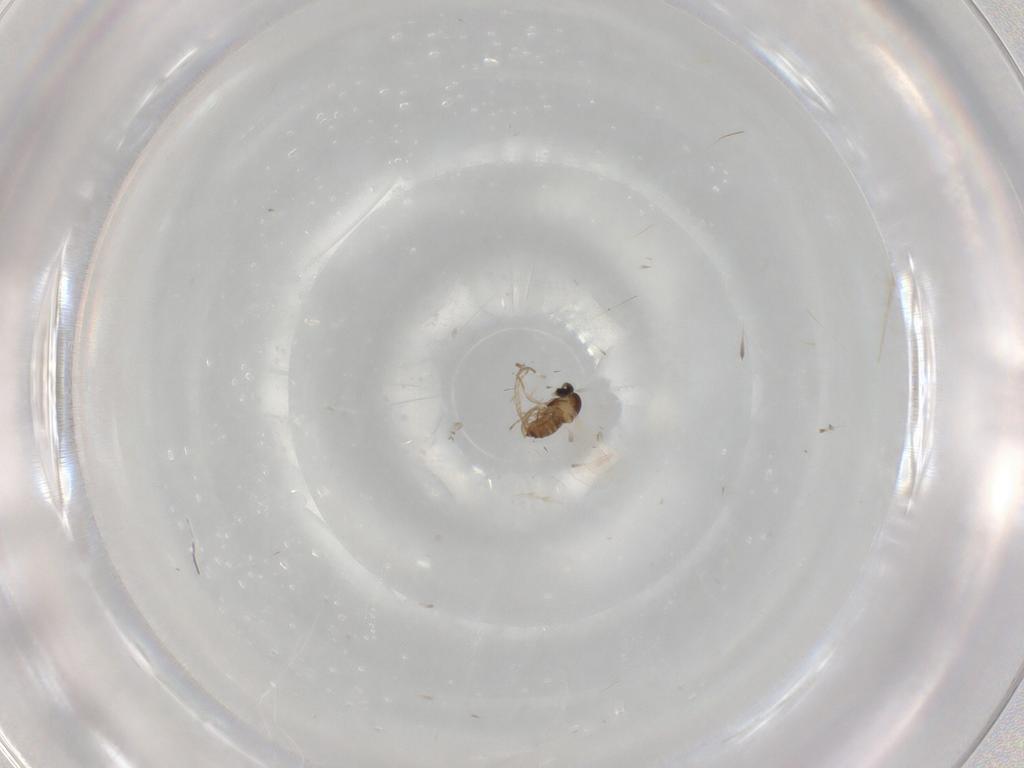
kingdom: Animalia
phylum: Arthropoda
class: Insecta
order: Diptera
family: Cecidomyiidae
